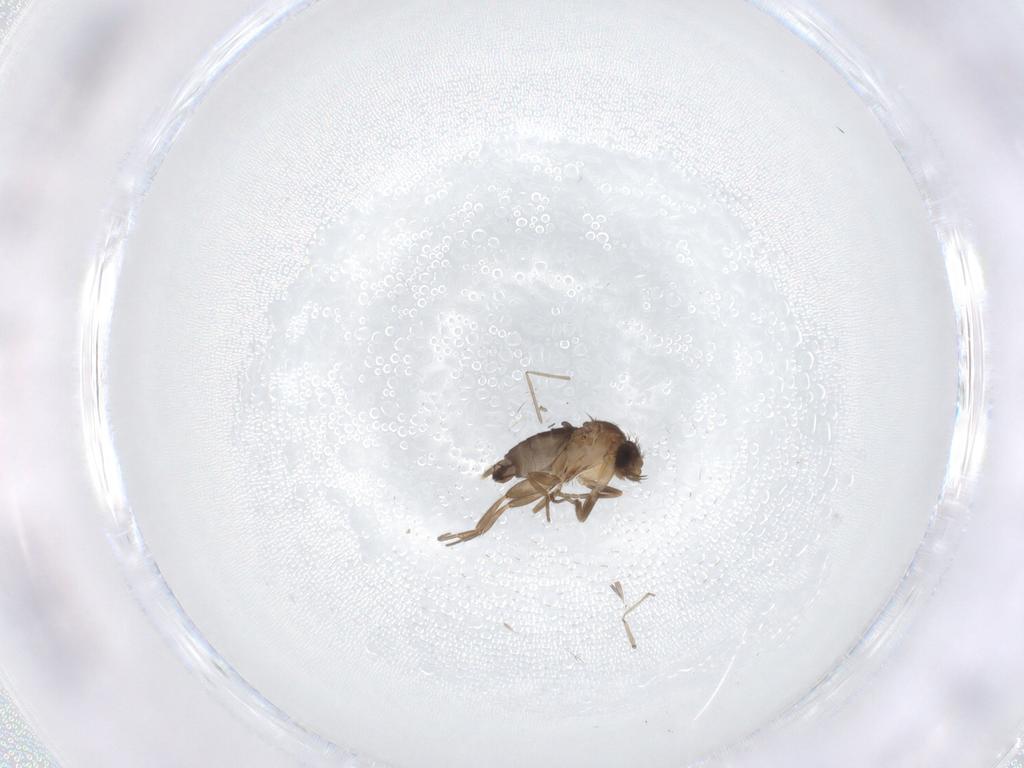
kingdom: Animalia
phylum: Arthropoda
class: Insecta
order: Diptera
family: Phoridae
